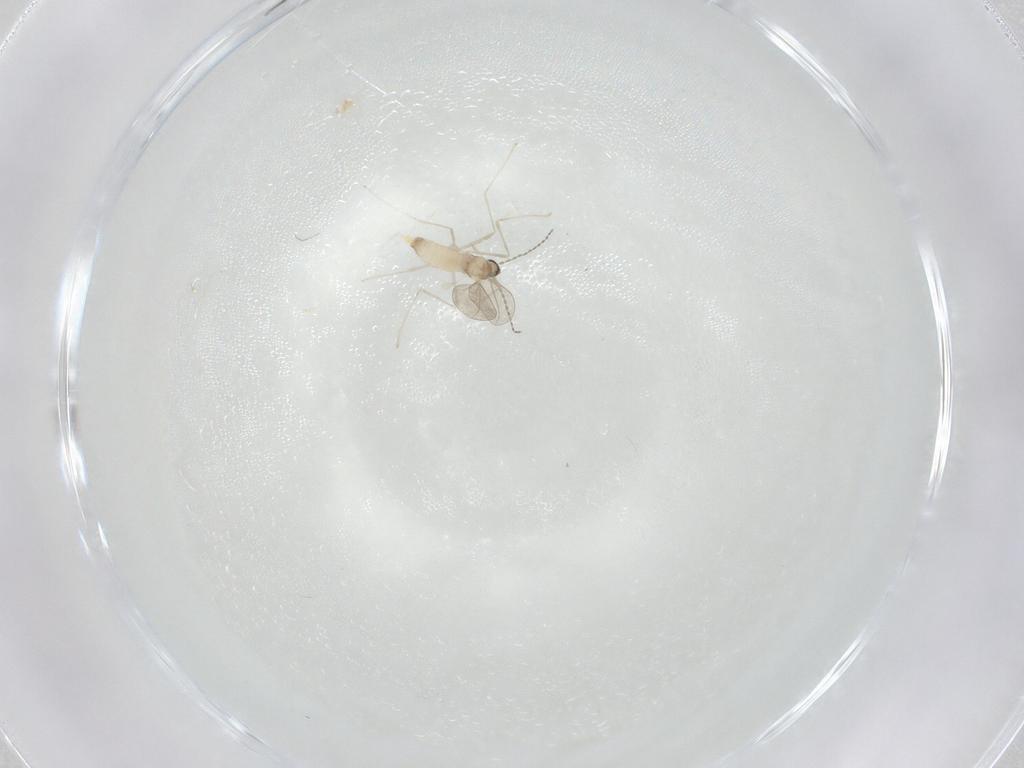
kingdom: Animalia
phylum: Arthropoda
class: Insecta
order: Diptera
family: Cecidomyiidae
